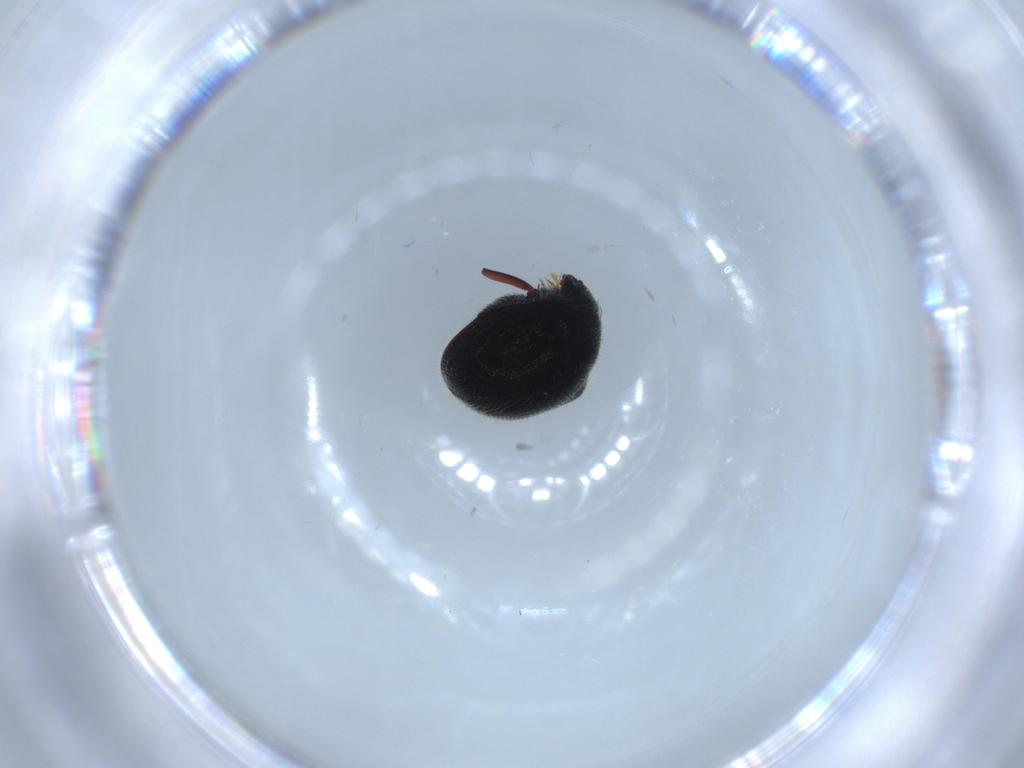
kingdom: Animalia
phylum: Arthropoda
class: Insecta
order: Coleoptera
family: Ptinidae
